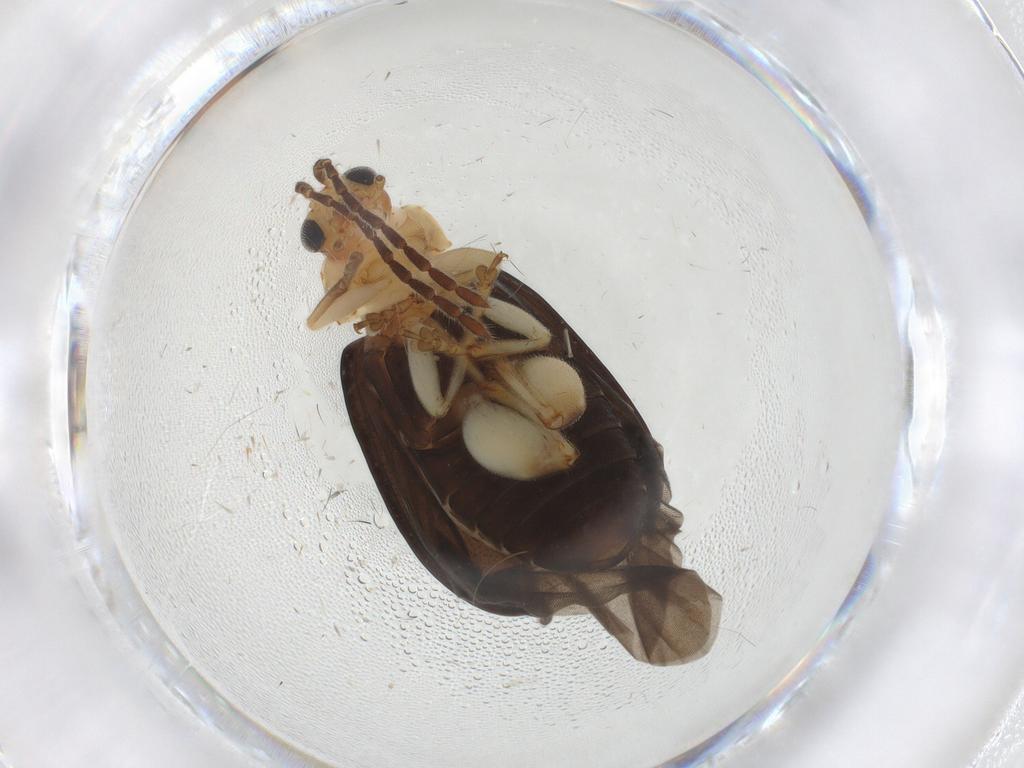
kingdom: Animalia
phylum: Arthropoda
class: Insecta
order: Coleoptera
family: Chrysomelidae
